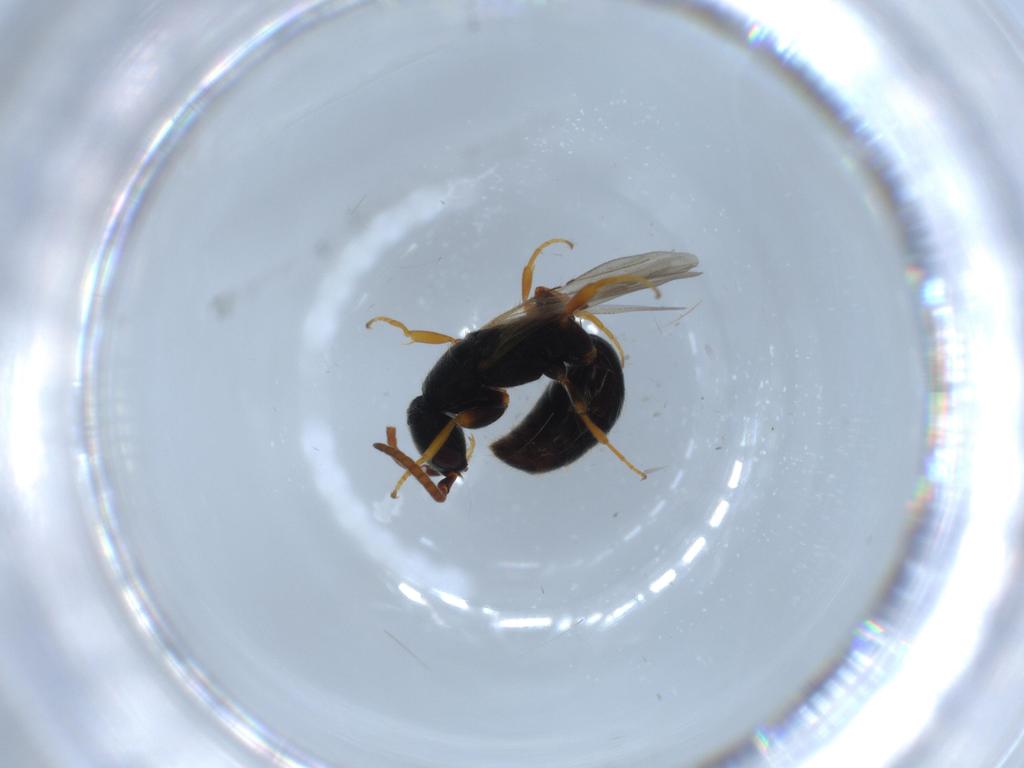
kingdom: Animalia
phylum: Arthropoda
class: Insecta
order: Hymenoptera
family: Bethylidae
